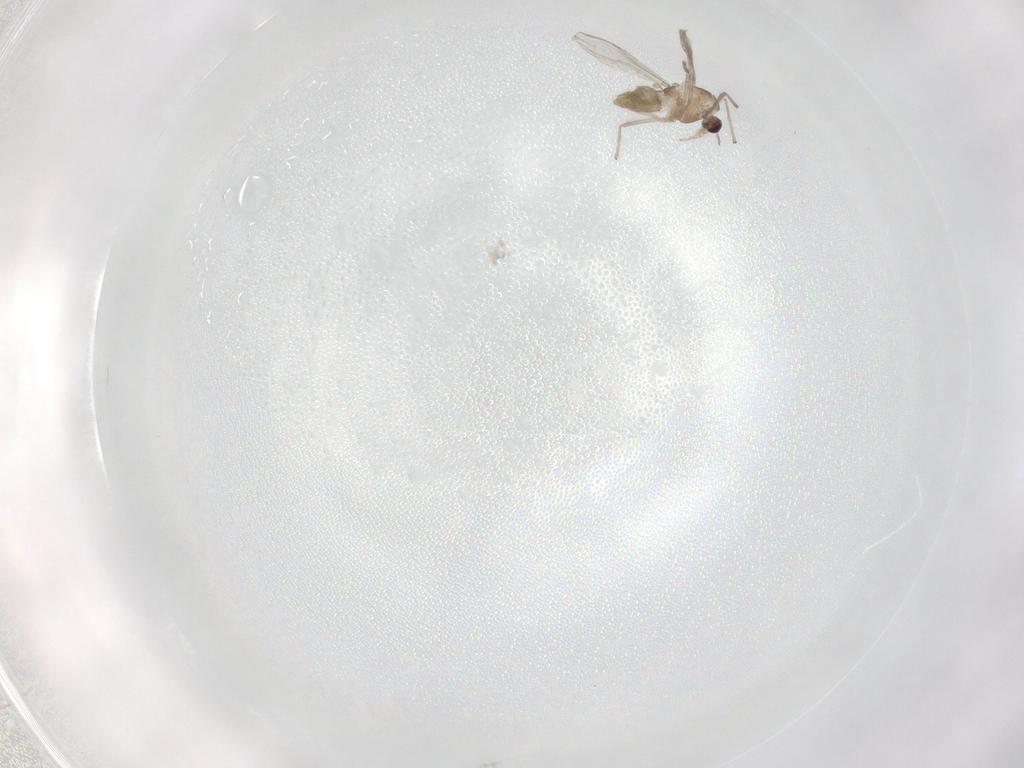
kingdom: Animalia
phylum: Arthropoda
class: Insecta
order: Diptera
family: Chironomidae
